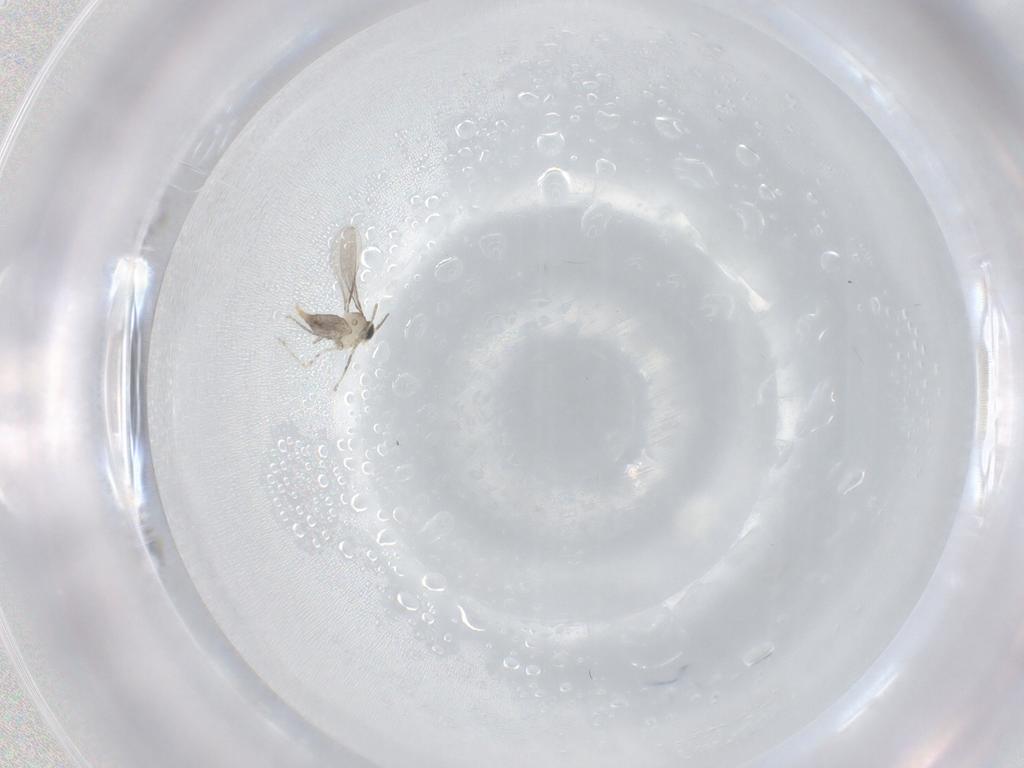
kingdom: Animalia
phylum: Arthropoda
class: Insecta
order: Diptera
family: Cecidomyiidae
